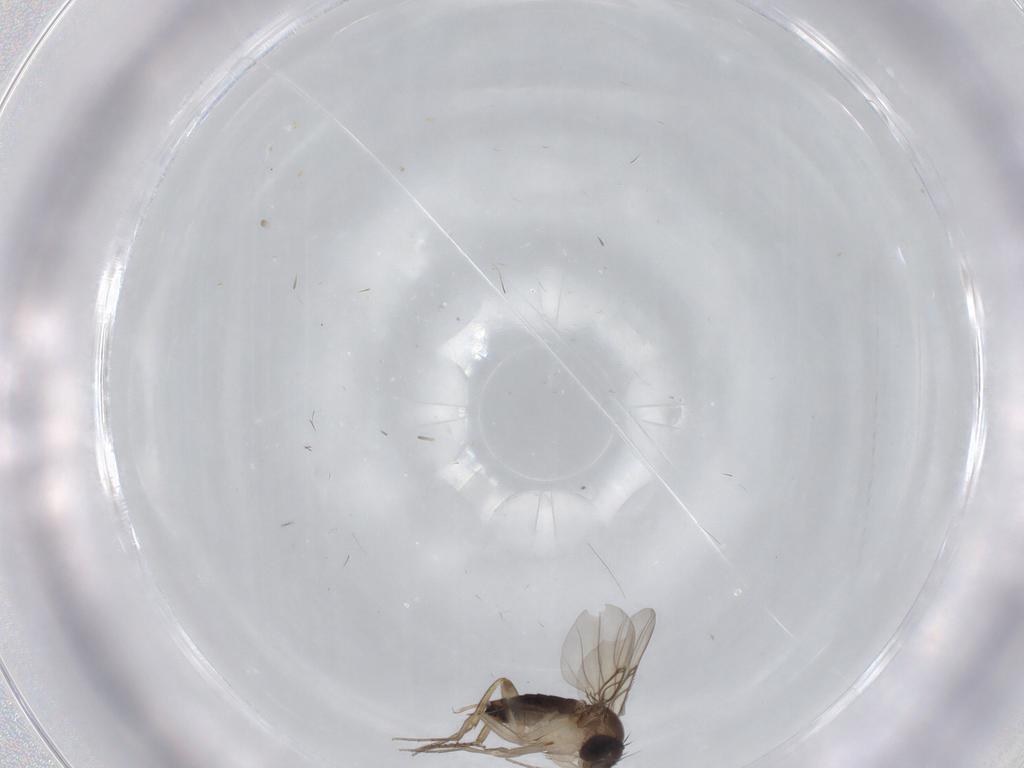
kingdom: Animalia
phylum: Arthropoda
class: Insecta
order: Diptera
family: Cecidomyiidae
